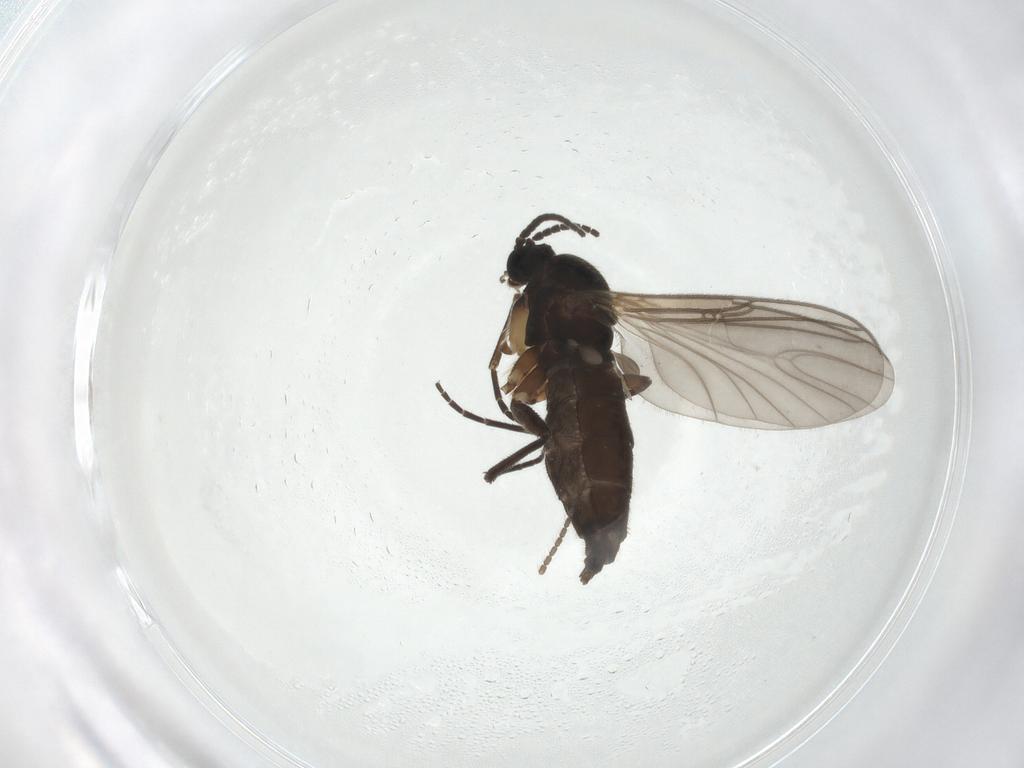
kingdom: Animalia
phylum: Arthropoda
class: Insecta
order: Diptera
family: Sciaridae
